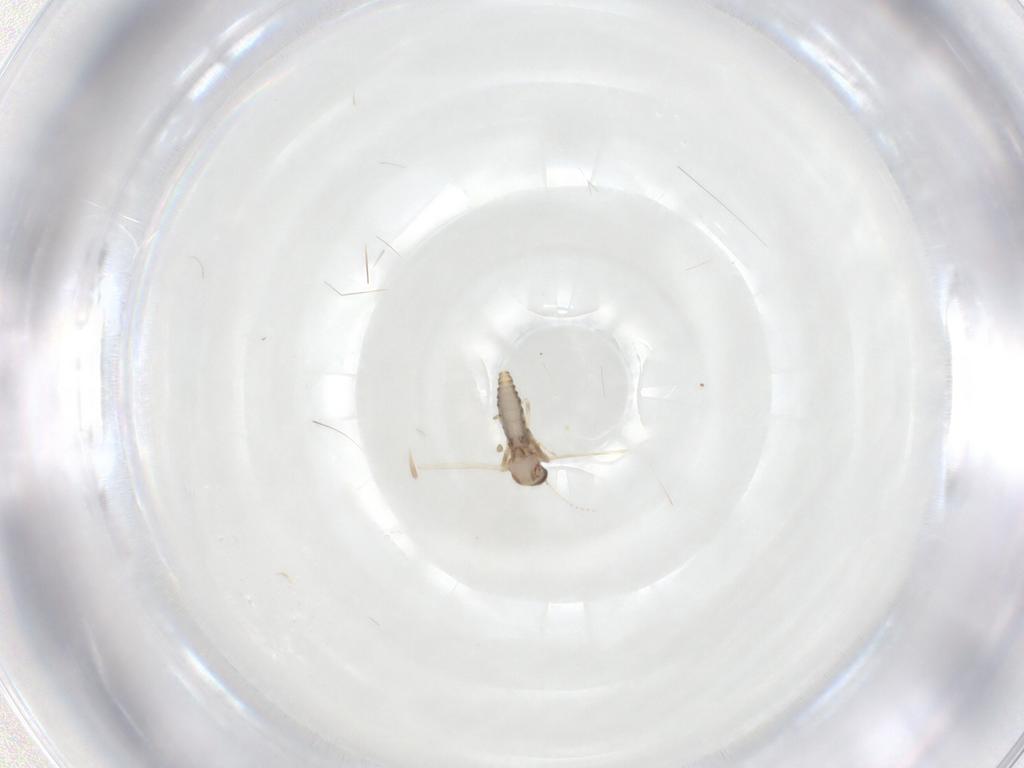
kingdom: Animalia
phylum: Arthropoda
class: Insecta
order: Diptera
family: Ceratopogonidae
